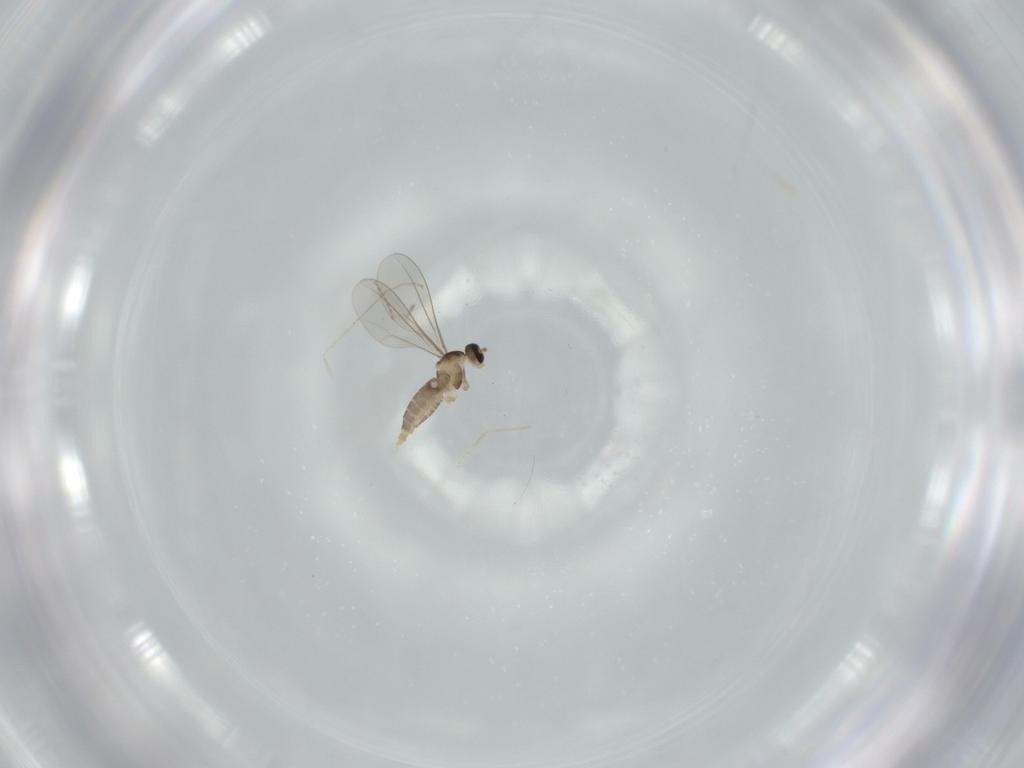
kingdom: Animalia
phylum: Arthropoda
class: Insecta
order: Diptera
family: Cecidomyiidae
